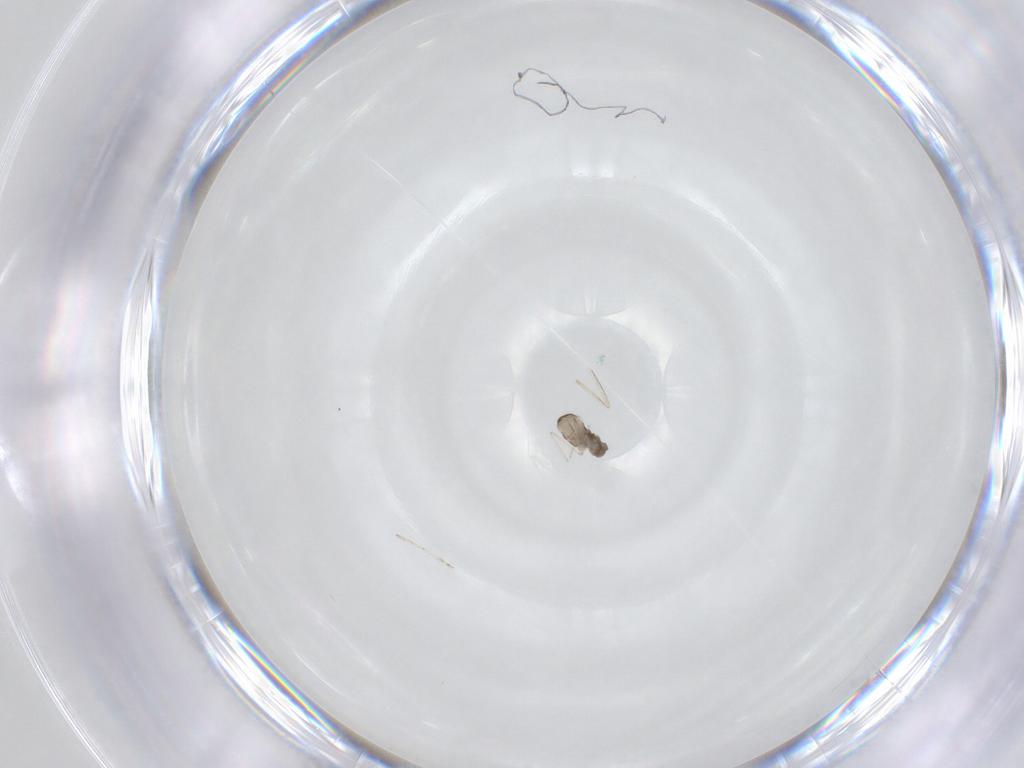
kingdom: Animalia
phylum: Arthropoda
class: Insecta
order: Diptera
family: Cecidomyiidae
